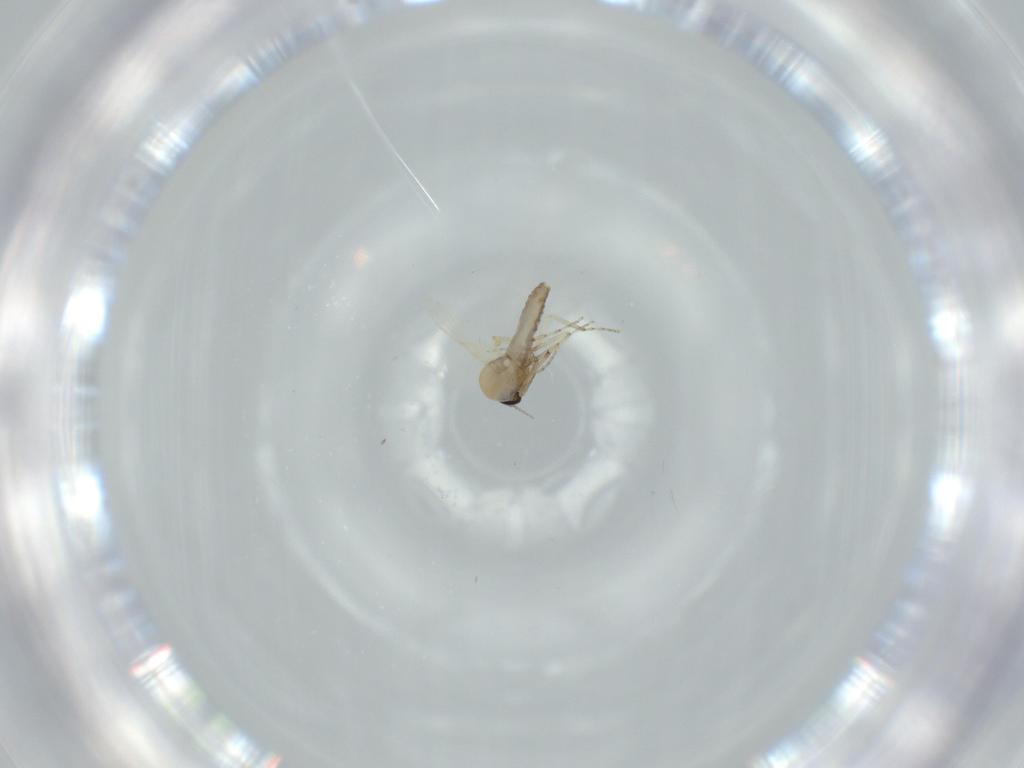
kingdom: Animalia
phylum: Arthropoda
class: Insecta
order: Diptera
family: Ceratopogonidae
